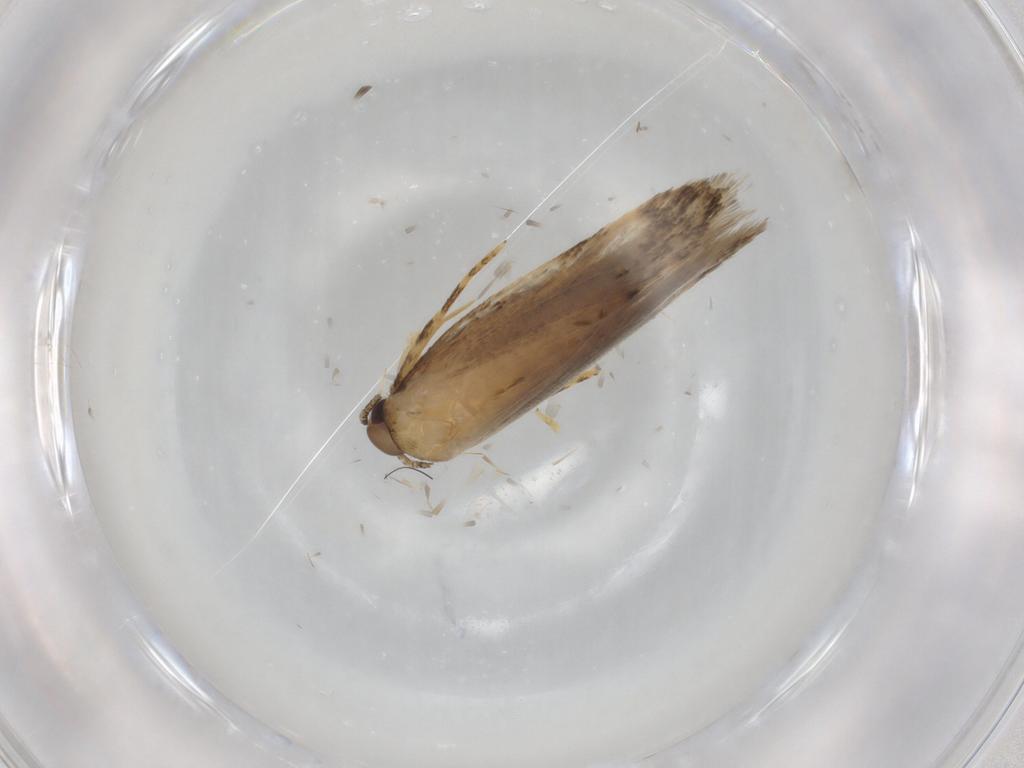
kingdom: Animalia
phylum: Arthropoda
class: Insecta
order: Lepidoptera
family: Autostichidae
